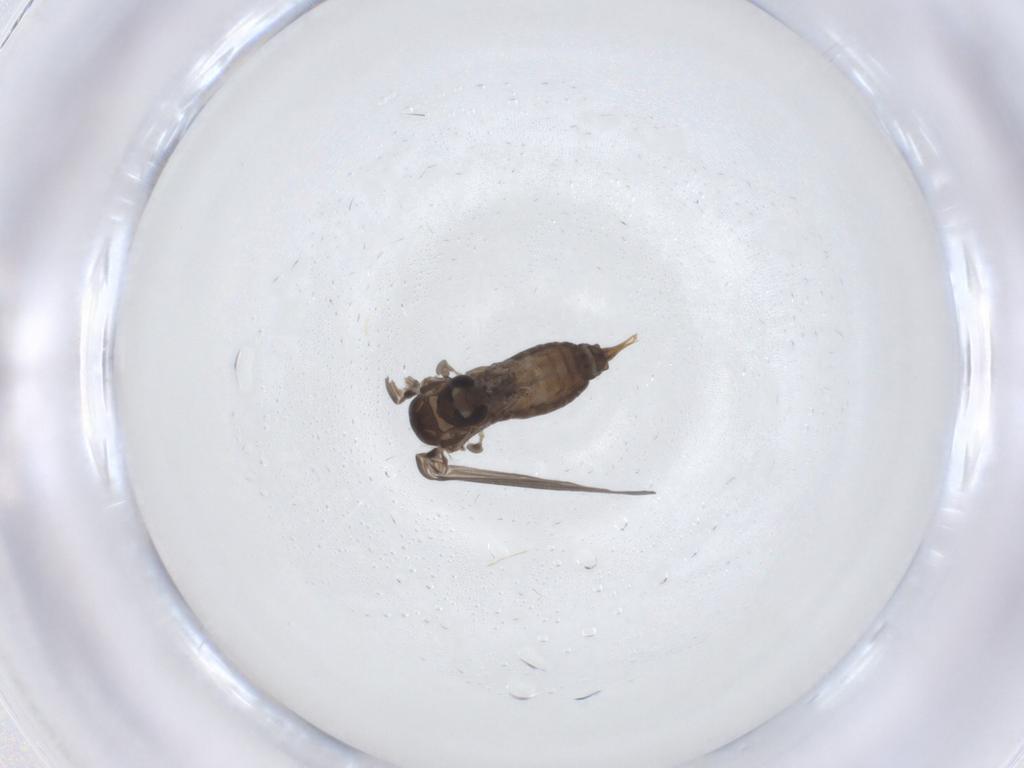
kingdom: Animalia
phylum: Arthropoda
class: Insecta
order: Diptera
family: Psychodidae
